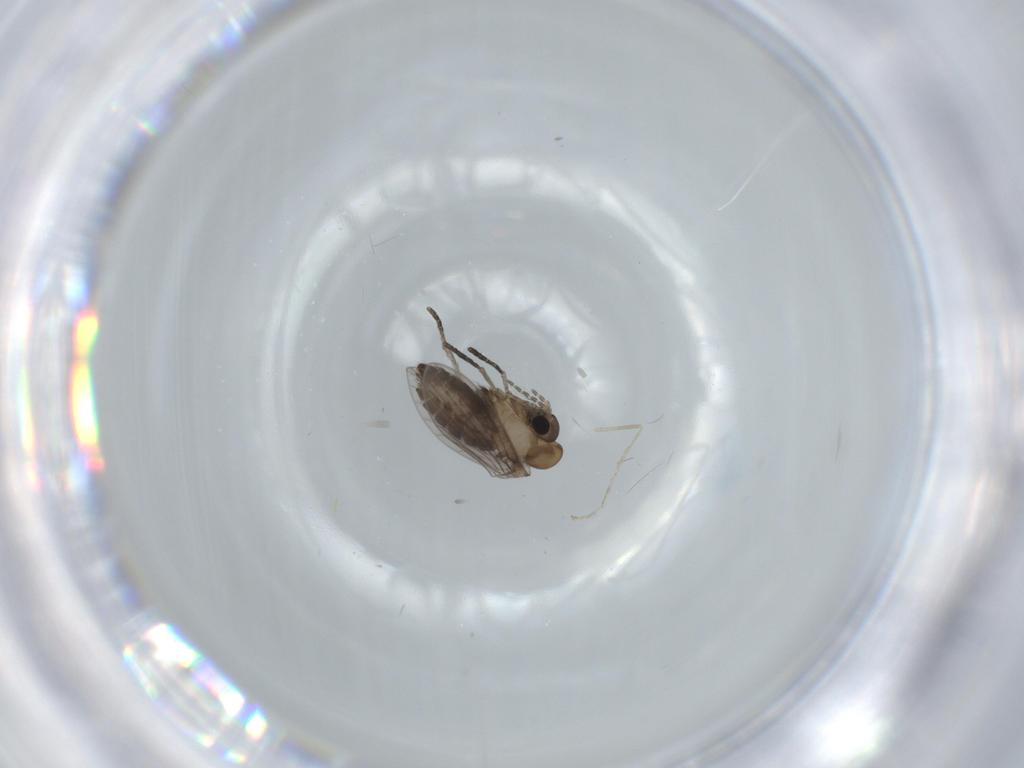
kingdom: Animalia
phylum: Arthropoda
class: Insecta
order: Diptera
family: Psychodidae
